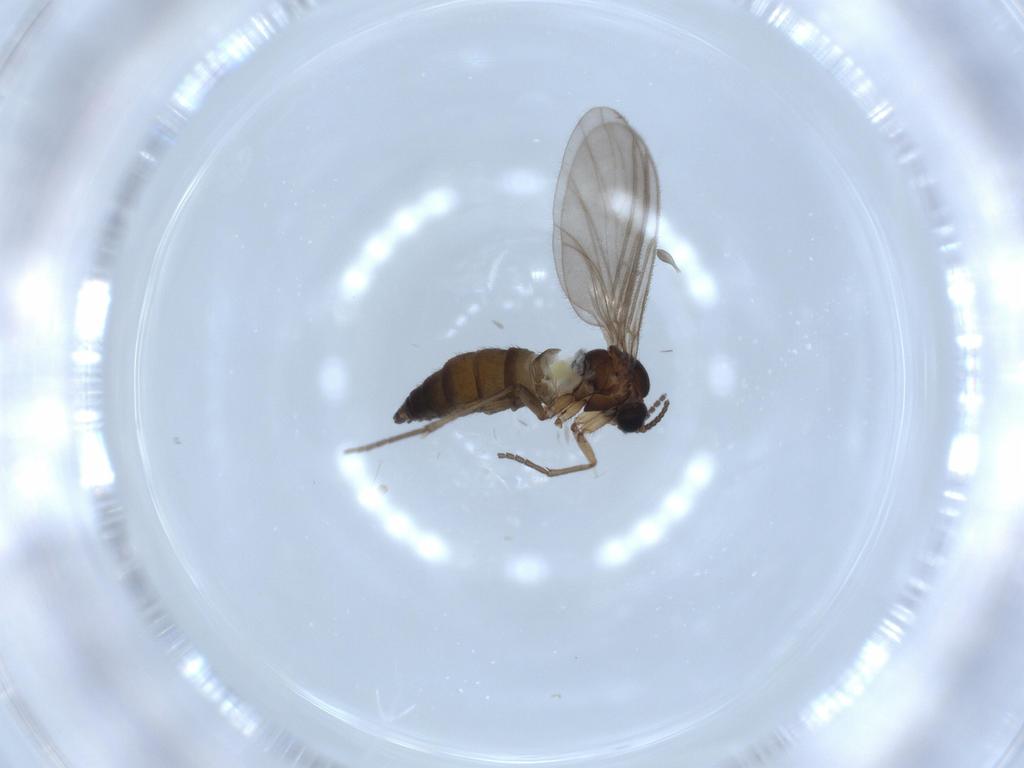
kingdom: Animalia
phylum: Arthropoda
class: Insecta
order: Diptera
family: Sciaridae
